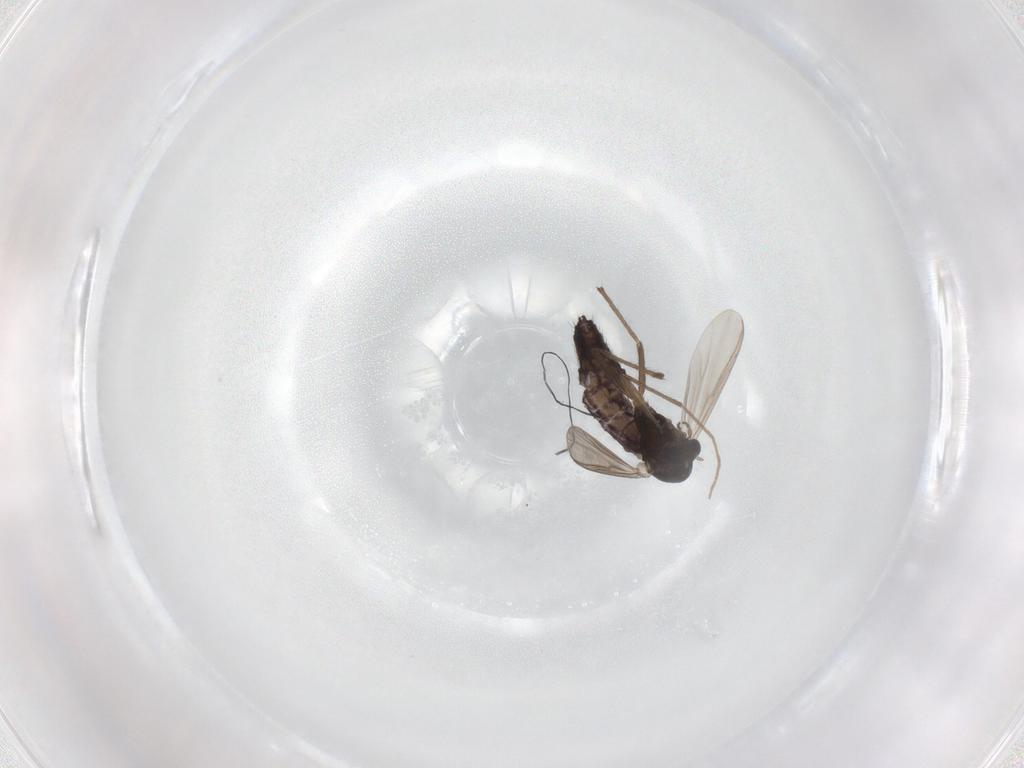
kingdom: Animalia
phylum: Arthropoda
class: Insecta
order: Diptera
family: Chironomidae
